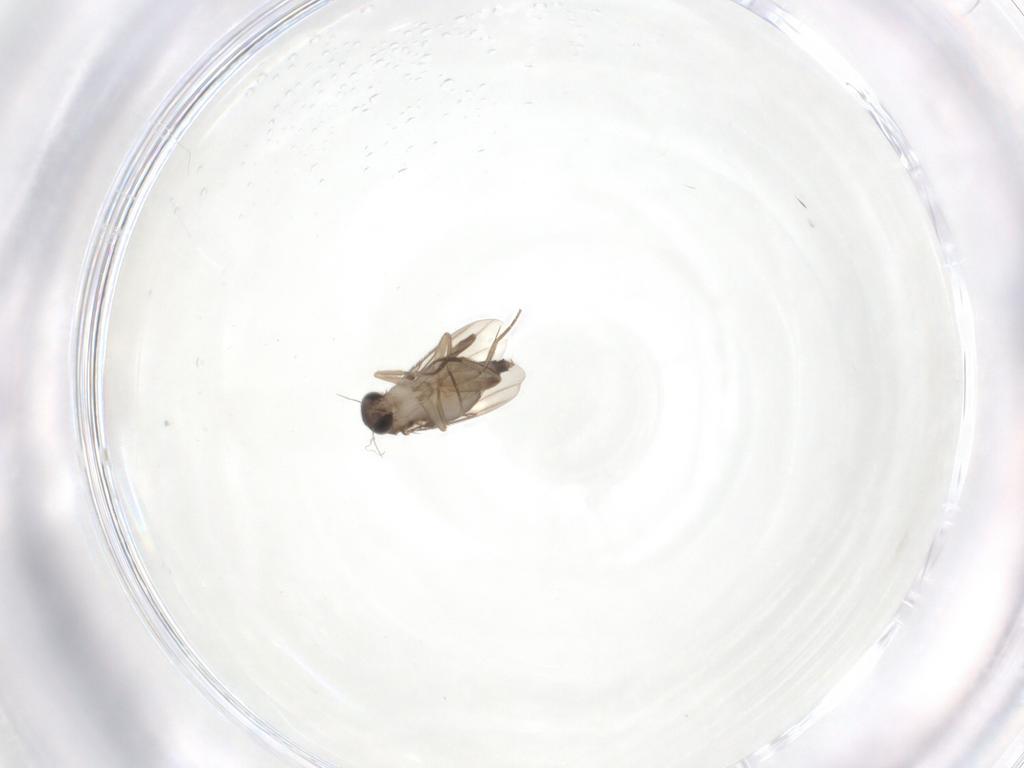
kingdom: Animalia
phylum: Arthropoda
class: Insecta
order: Diptera
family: Phoridae
